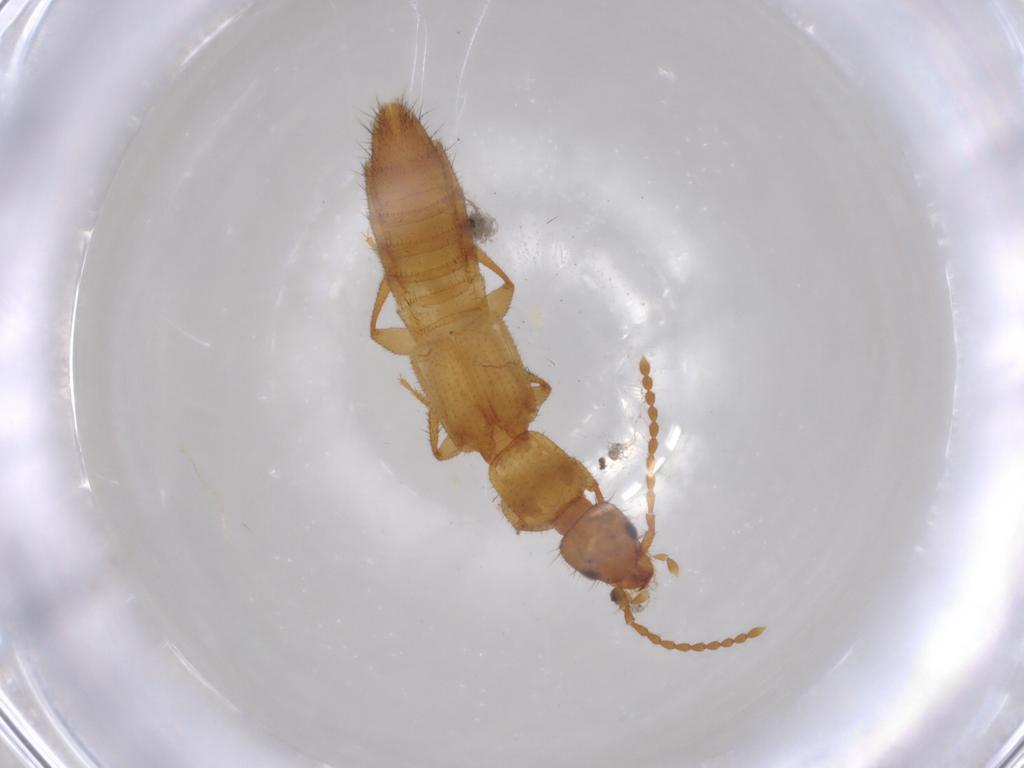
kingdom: Animalia
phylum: Arthropoda
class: Insecta
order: Coleoptera
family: Staphylinidae
